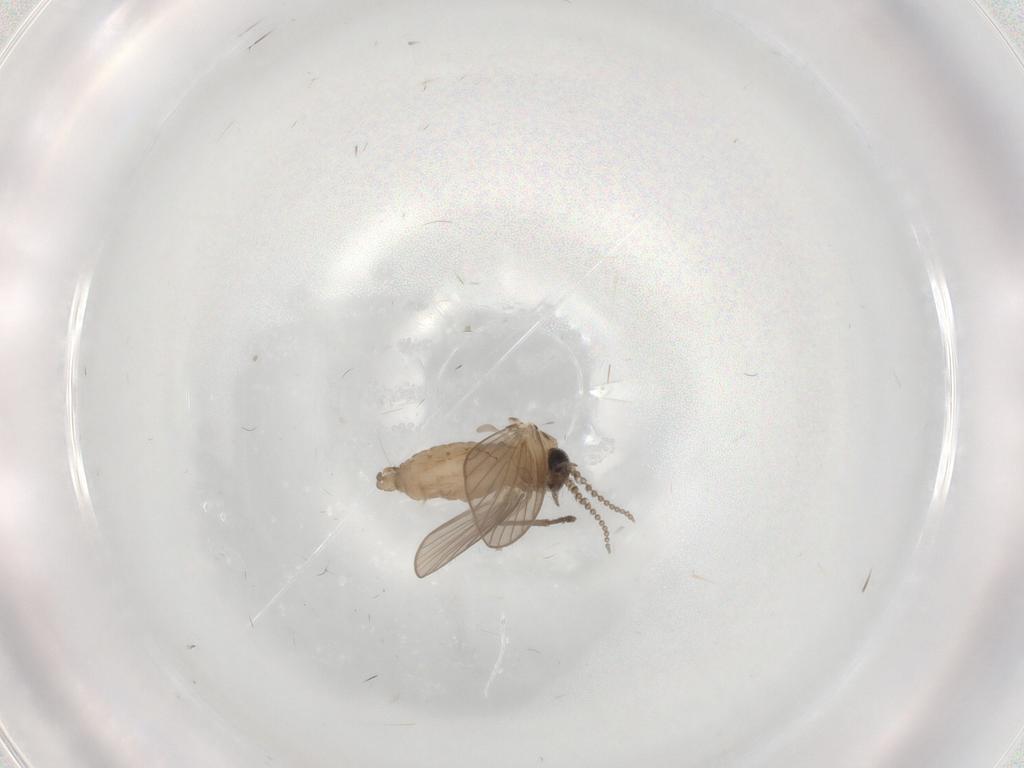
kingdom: Animalia
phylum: Arthropoda
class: Insecta
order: Diptera
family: Psychodidae
